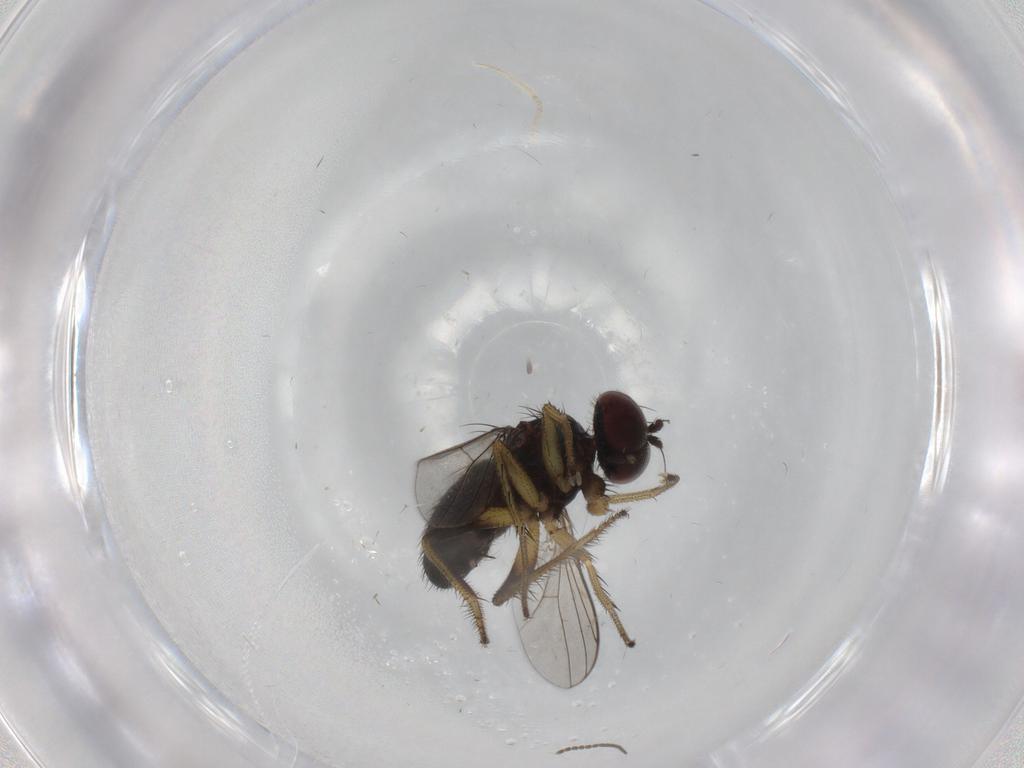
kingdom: Animalia
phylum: Arthropoda
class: Insecta
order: Diptera
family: Dolichopodidae
